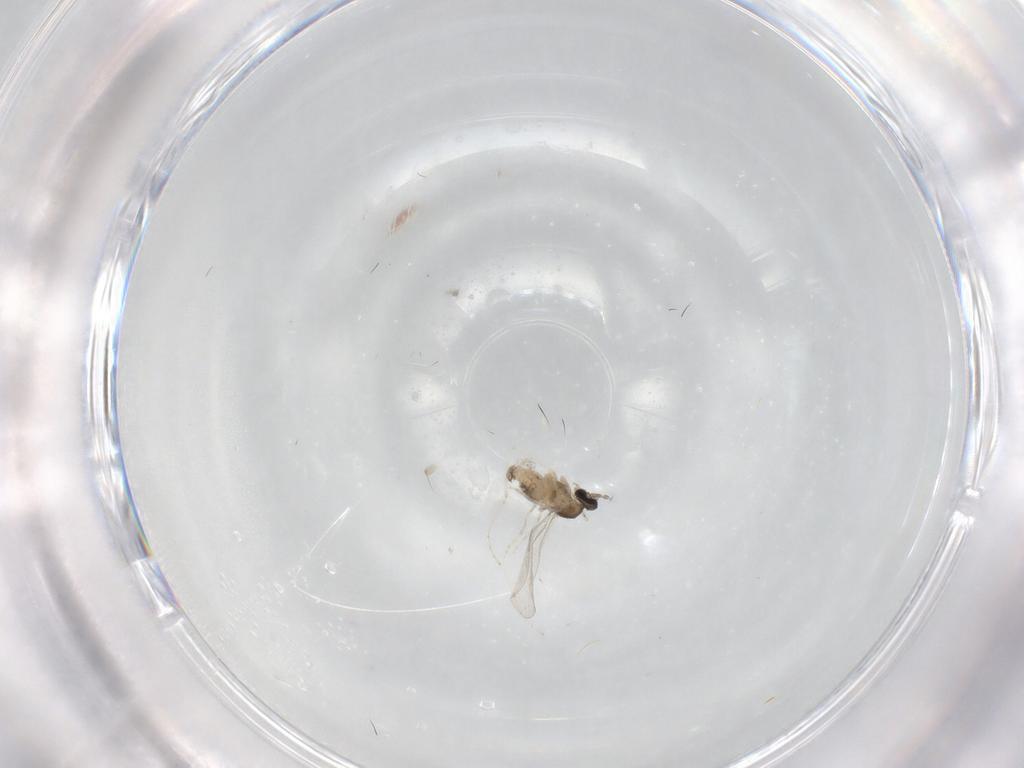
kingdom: Animalia
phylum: Arthropoda
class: Insecta
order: Diptera
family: Cecidomyiidae
